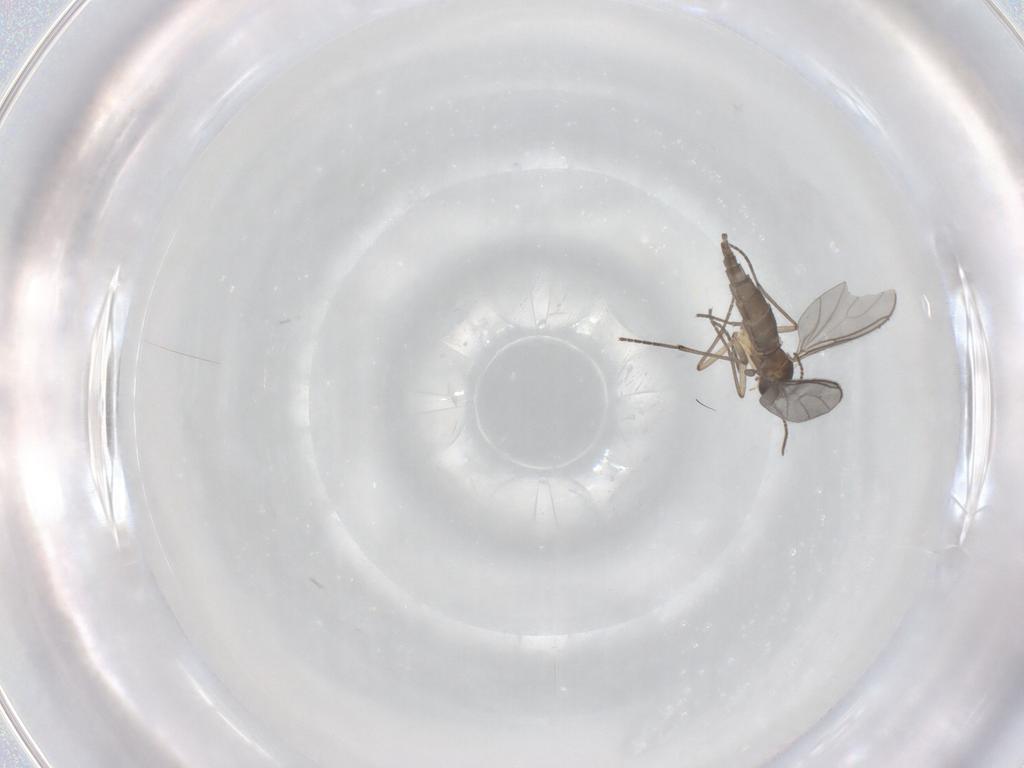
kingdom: Animalia
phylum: Arthropoda
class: Insecta
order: Diptera
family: Sciaridae
